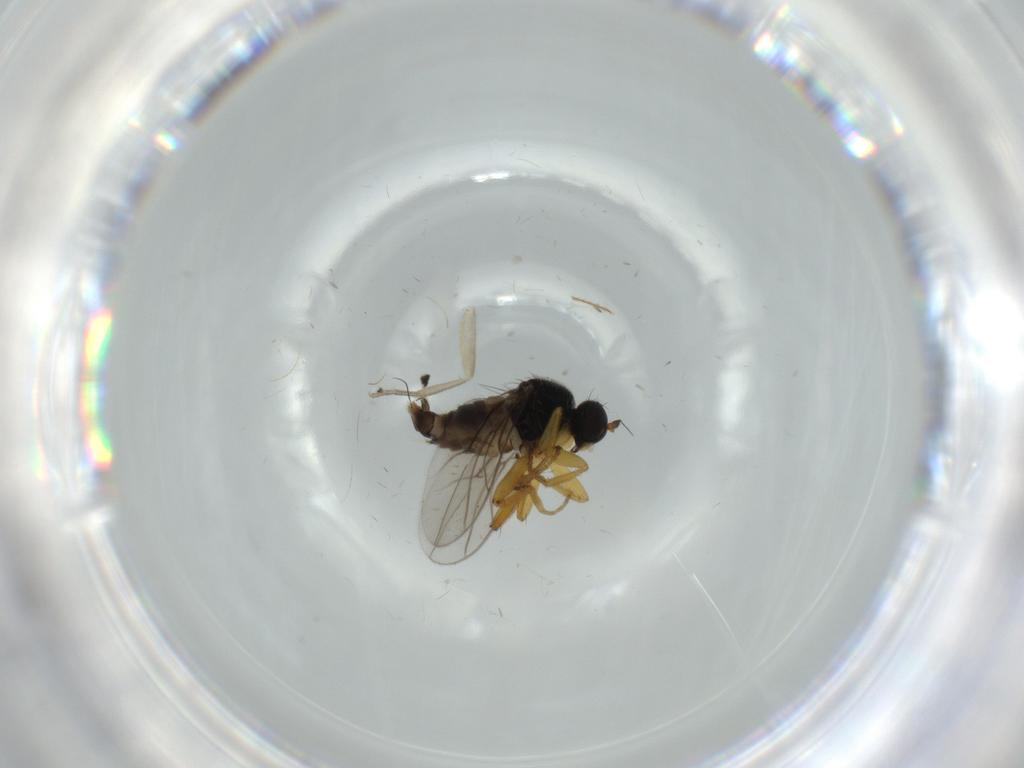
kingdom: Animalia
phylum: Arthropoda
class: Insecta
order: Diptera
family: Hybotidae
